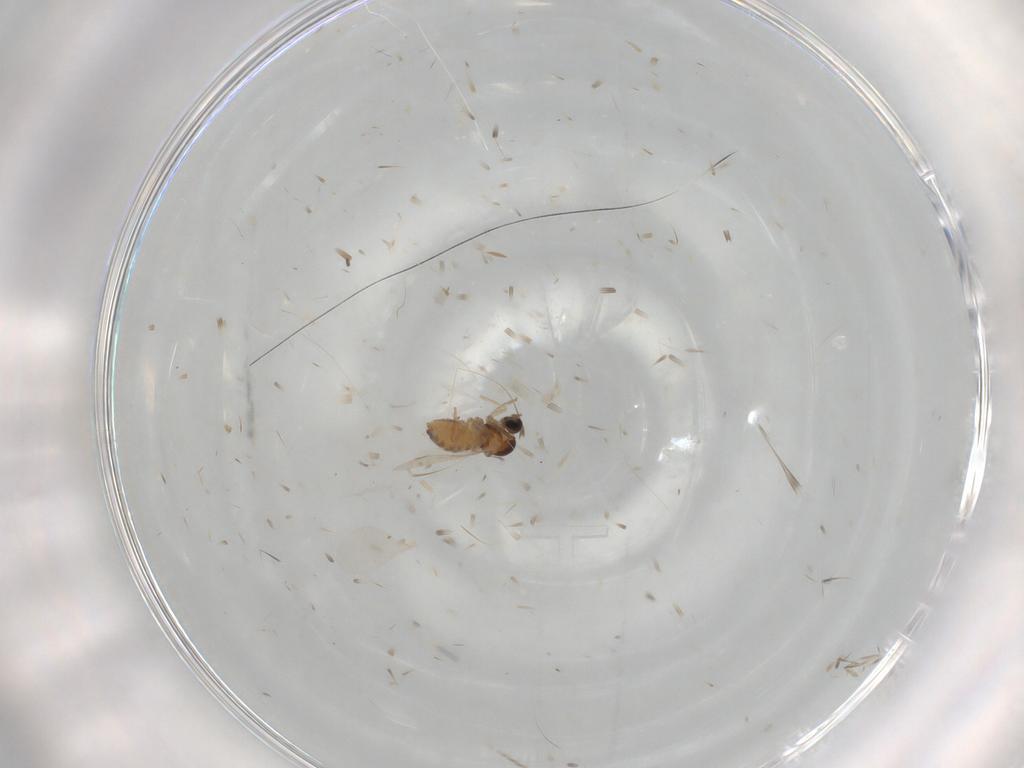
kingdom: Animalia
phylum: Arthropoda
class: Insecta
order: Diptera
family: Cecidomyiidae
